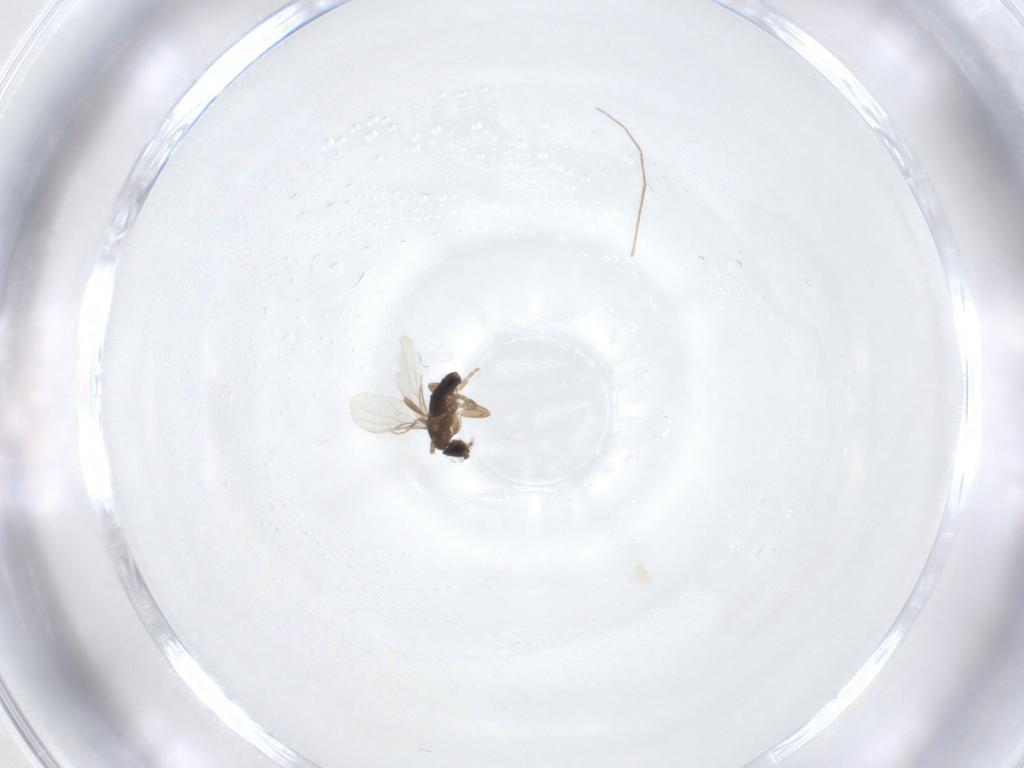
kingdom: Animalia
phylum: Arthropoda
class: Insecta
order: Diptera
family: Chironomidae
